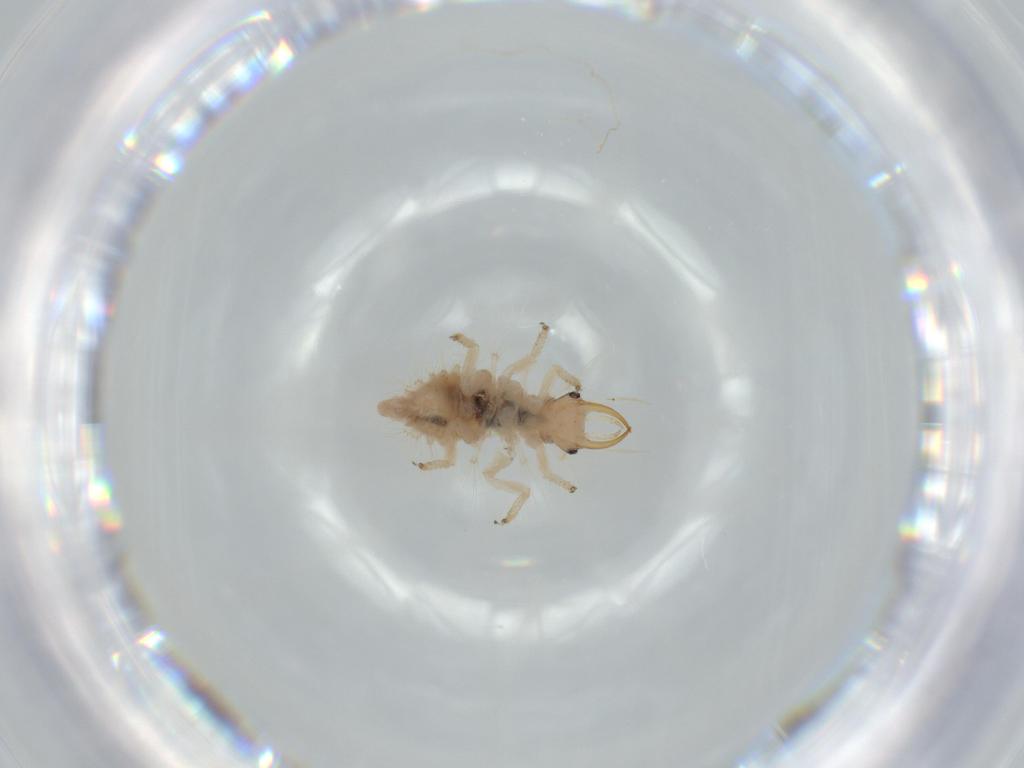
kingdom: Animalia
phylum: Arthropoda
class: Insecta
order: Neuroptera
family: Chrysopidae
